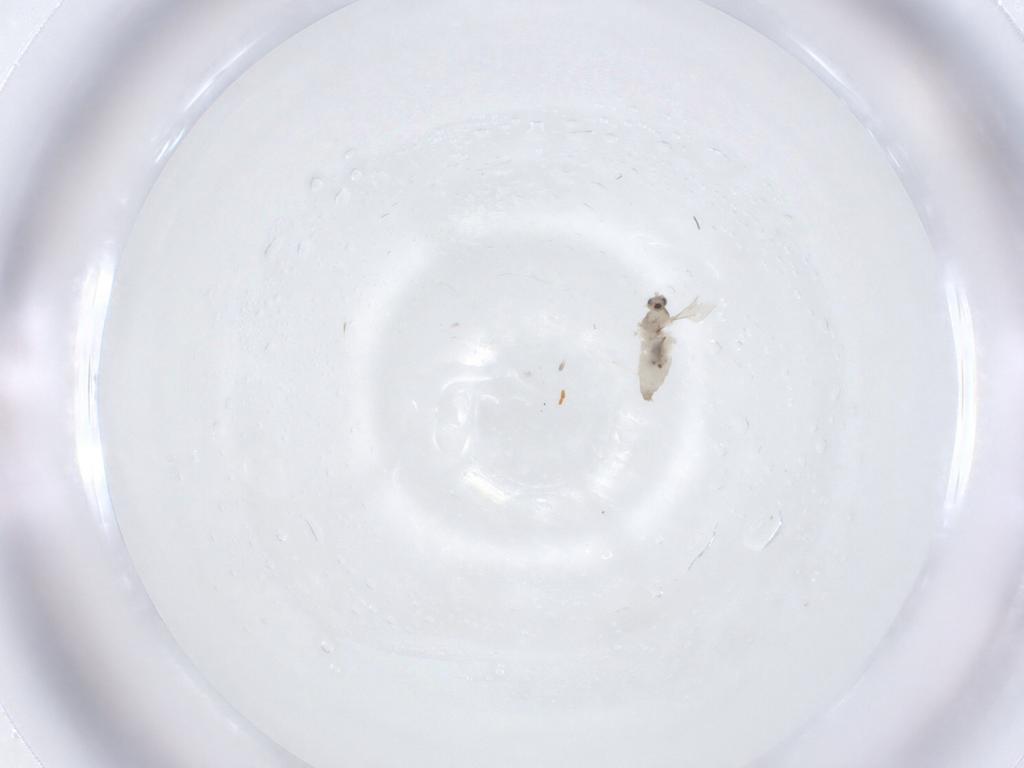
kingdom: Animalia
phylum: Arthropoda
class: Insecta
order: Diptera
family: Cecidomyiidae
